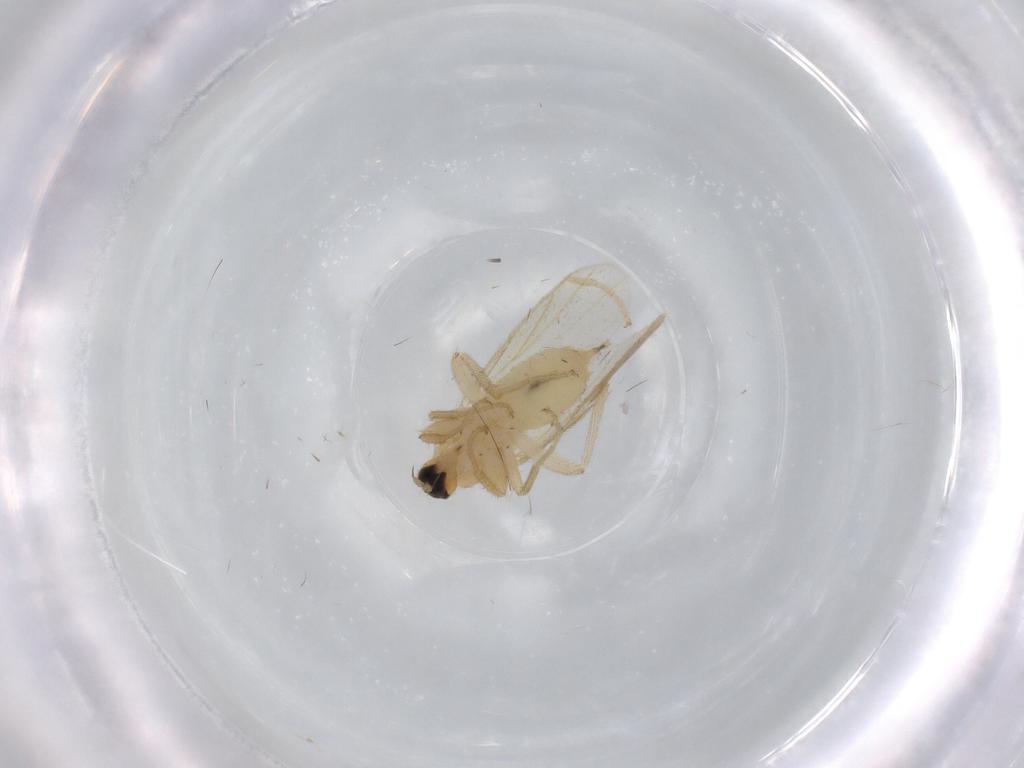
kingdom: Animalia
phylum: Arthropoda
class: Insecta
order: Diptera
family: Hybotidae
